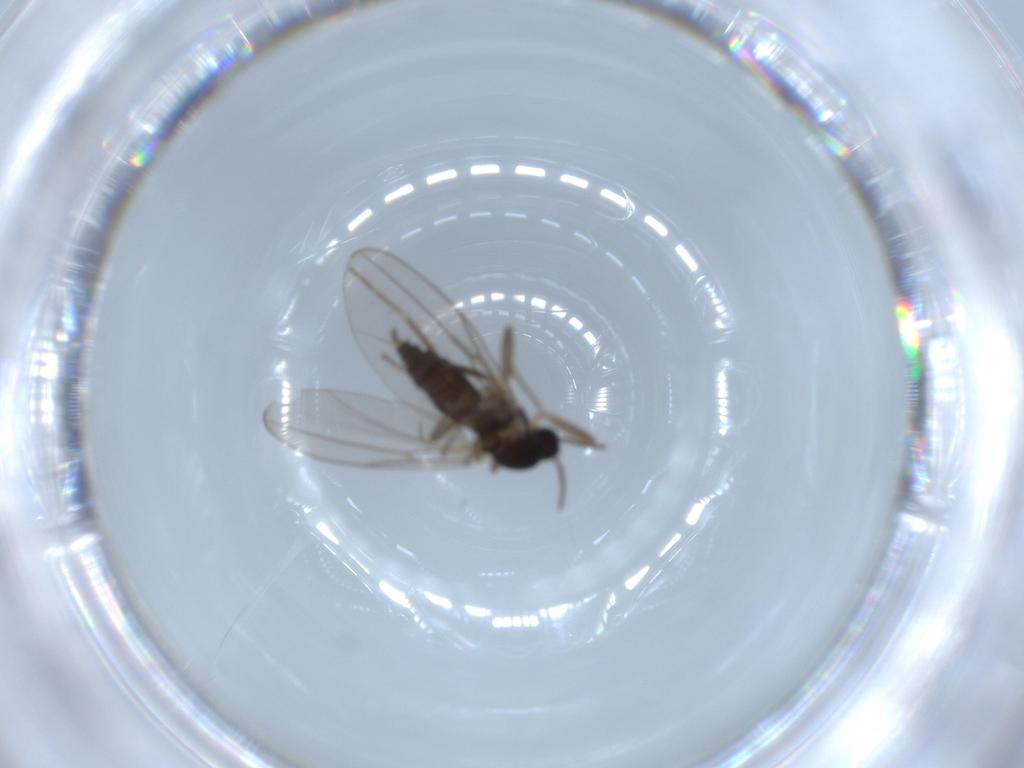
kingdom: Animalia
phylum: Arthropoda
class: Insecta
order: Diptera
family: Cecidomyiidae
